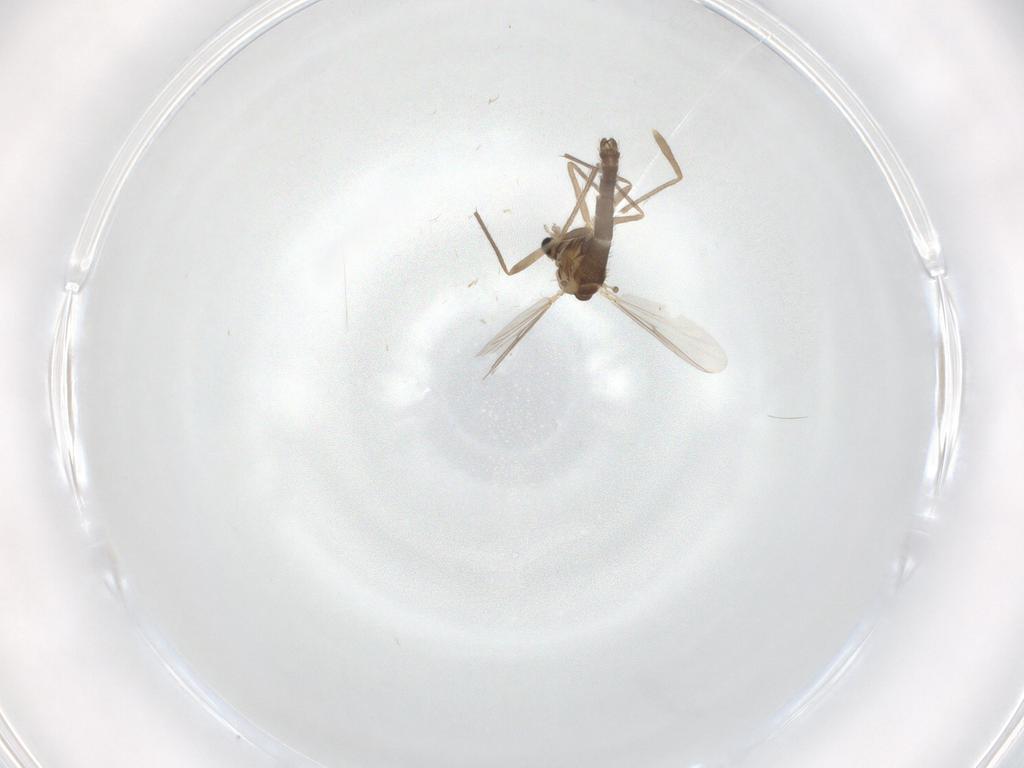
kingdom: Animalia
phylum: Arthropoda
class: Insecta
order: Diptera
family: Chironomidae
